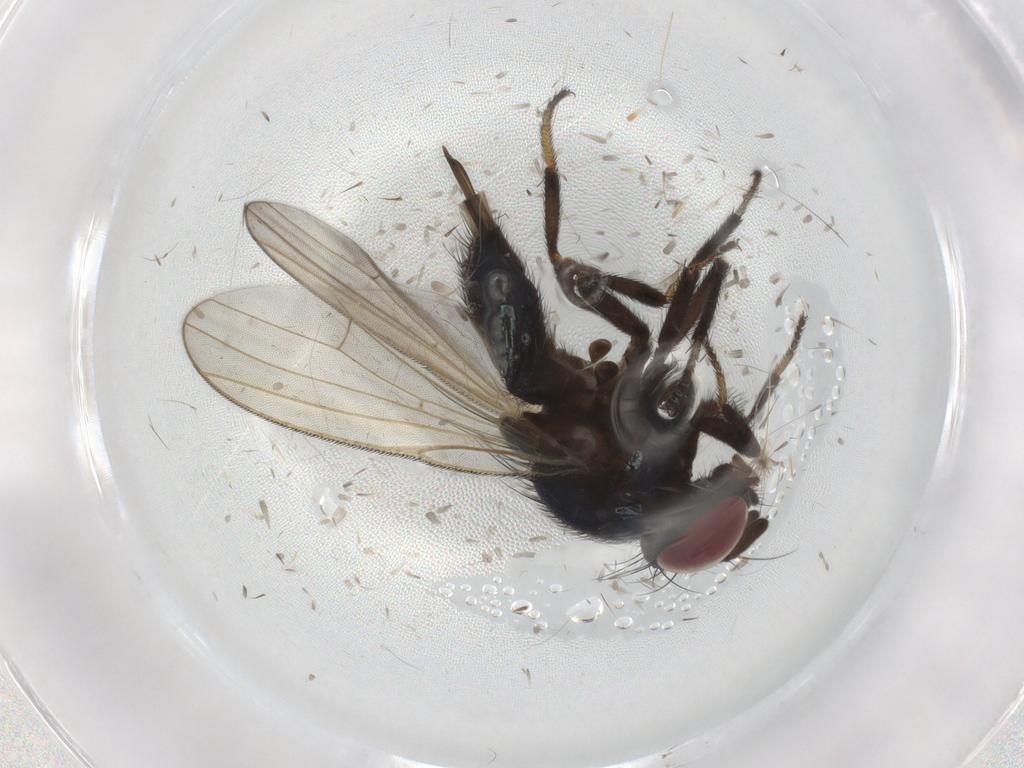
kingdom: Animalia
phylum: Arthropoda
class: Insecta
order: Diptera
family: Lonchaeidae
